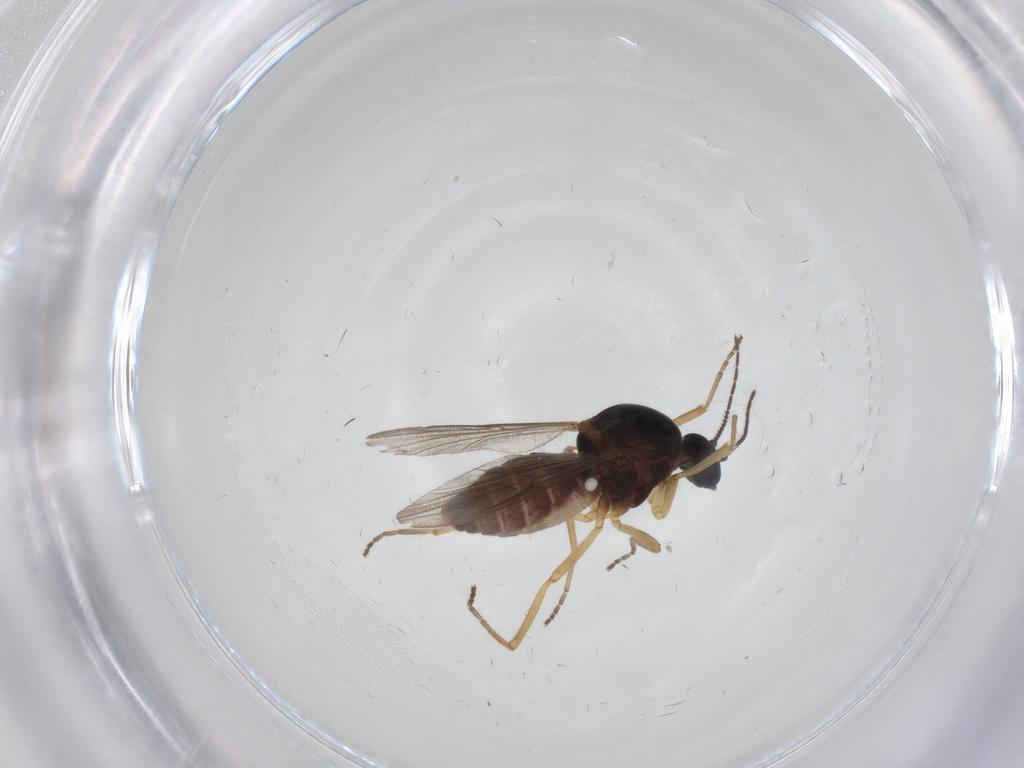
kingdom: Animalia
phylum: Arthropoda
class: Insecta
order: Diptera
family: Ceratopogonidae
